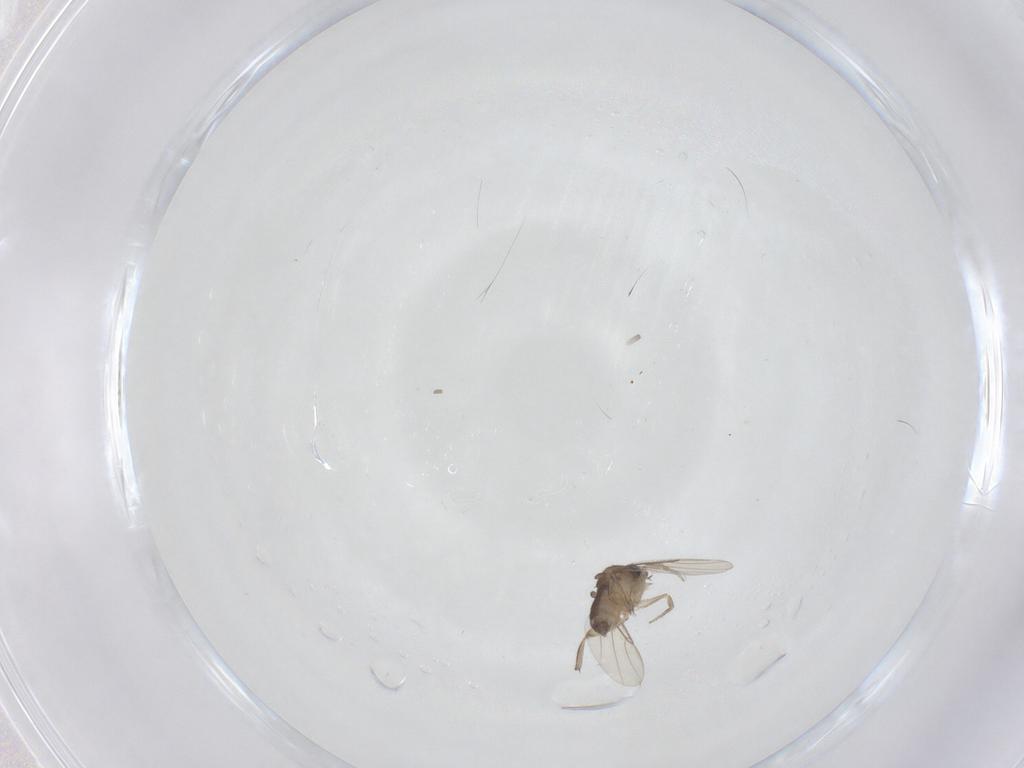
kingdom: Animalia
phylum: Arthropoda
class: Insecta
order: Diptera
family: Phoridae
